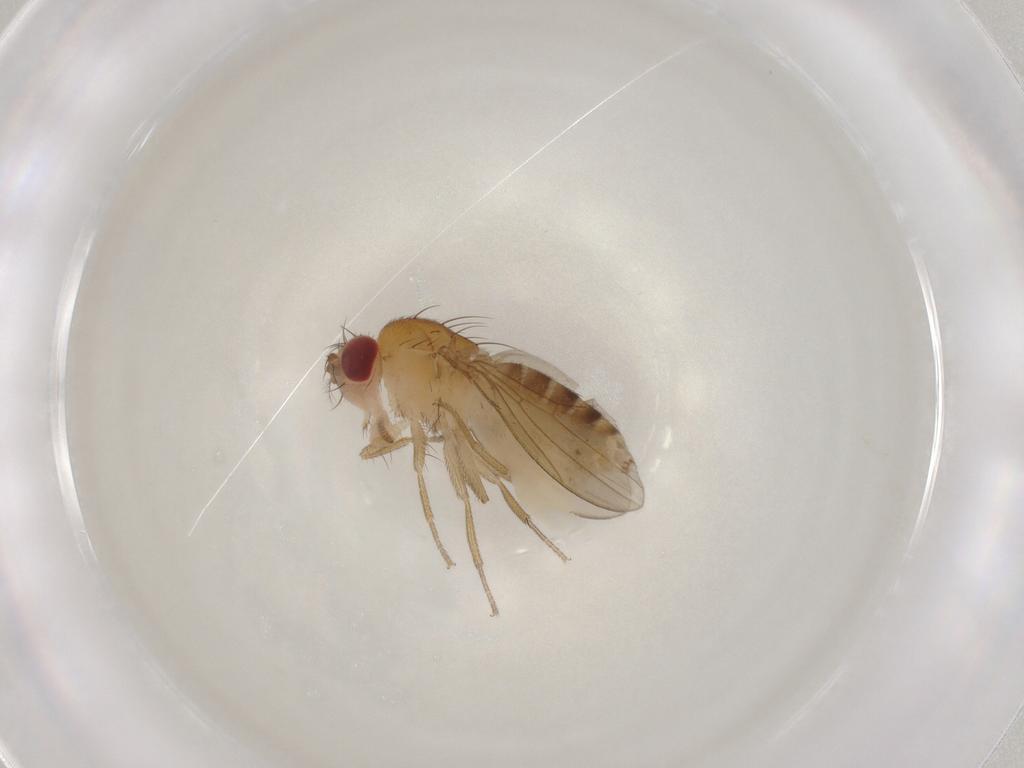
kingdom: Animalia
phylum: Arthropoda
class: Insecta
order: Diptera
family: Drosophilidae
